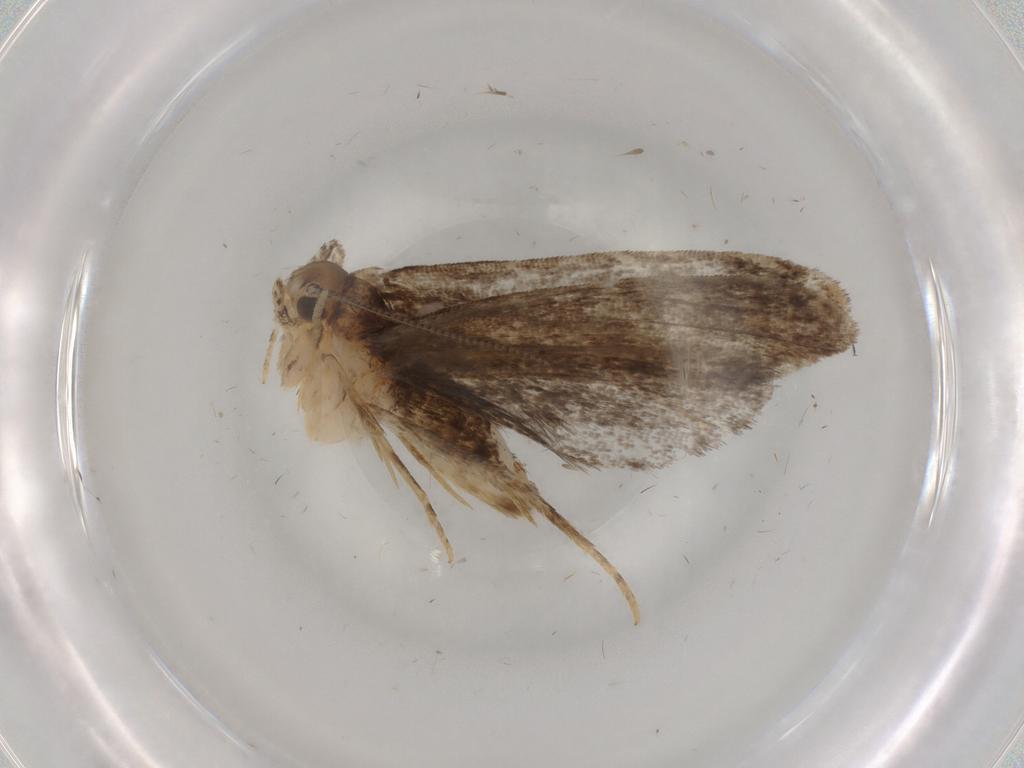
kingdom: Animalia
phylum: Arthropoda
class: Insecta
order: Lepidoptera
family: Dryadaulidae
